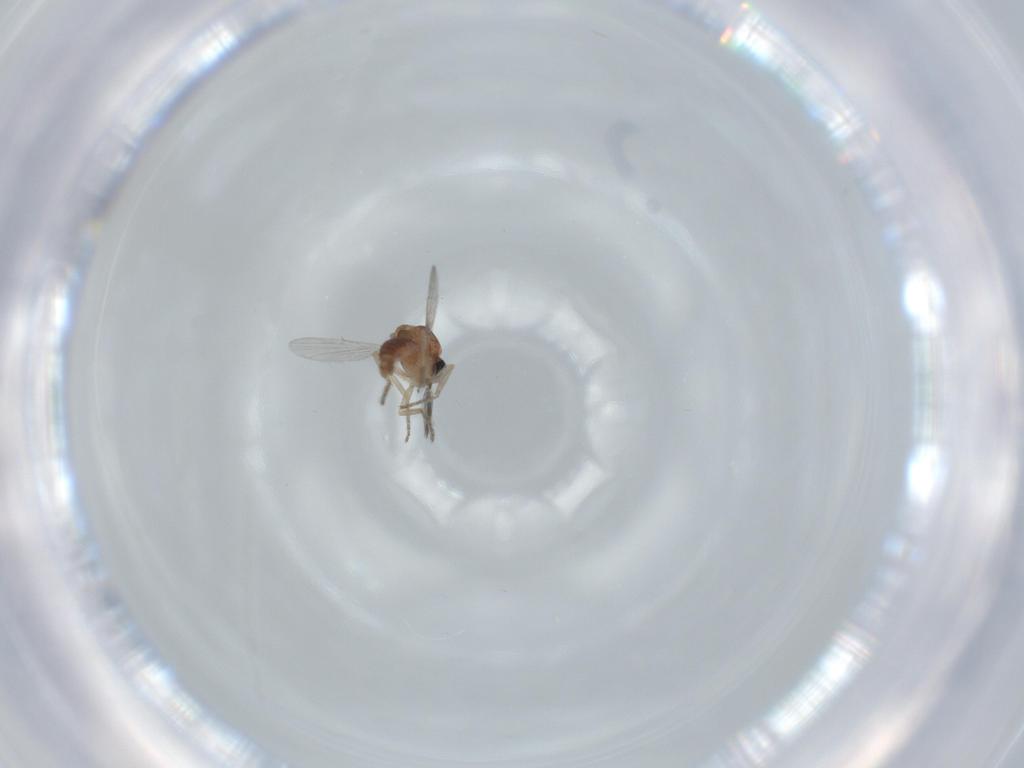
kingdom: Animalia
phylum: Arthropoda
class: Insecta
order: Diptera
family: Ceratopogonidae
